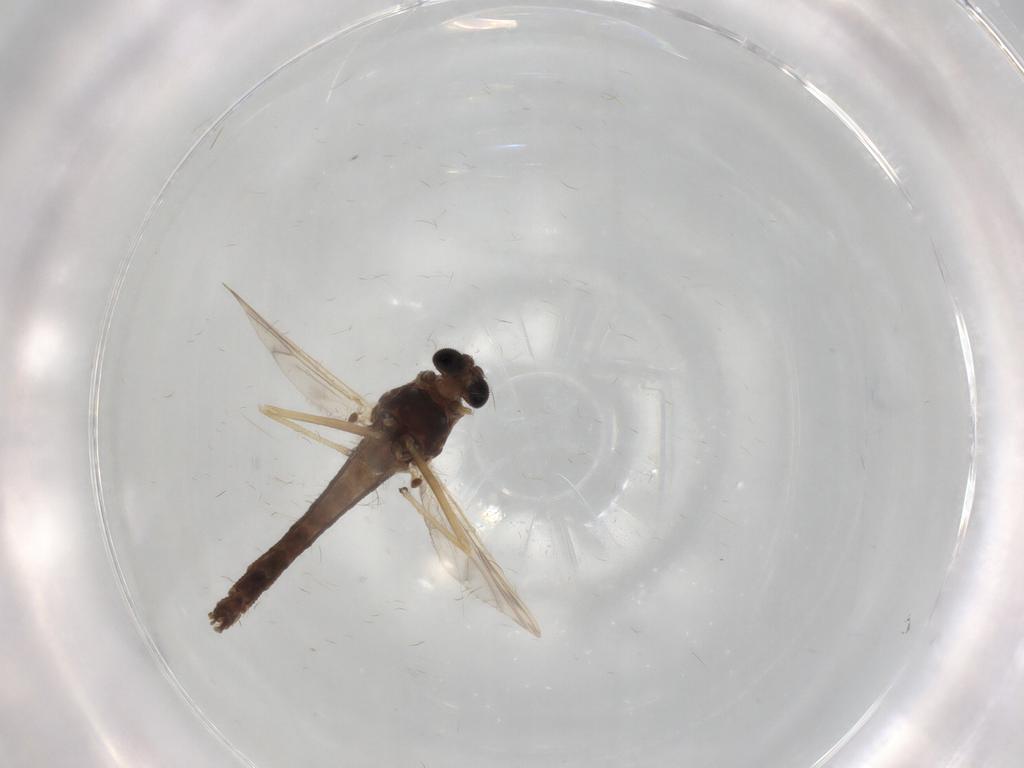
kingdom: Animalia
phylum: Arthropoda
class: Insecta
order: Diptera
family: Chironomidae
